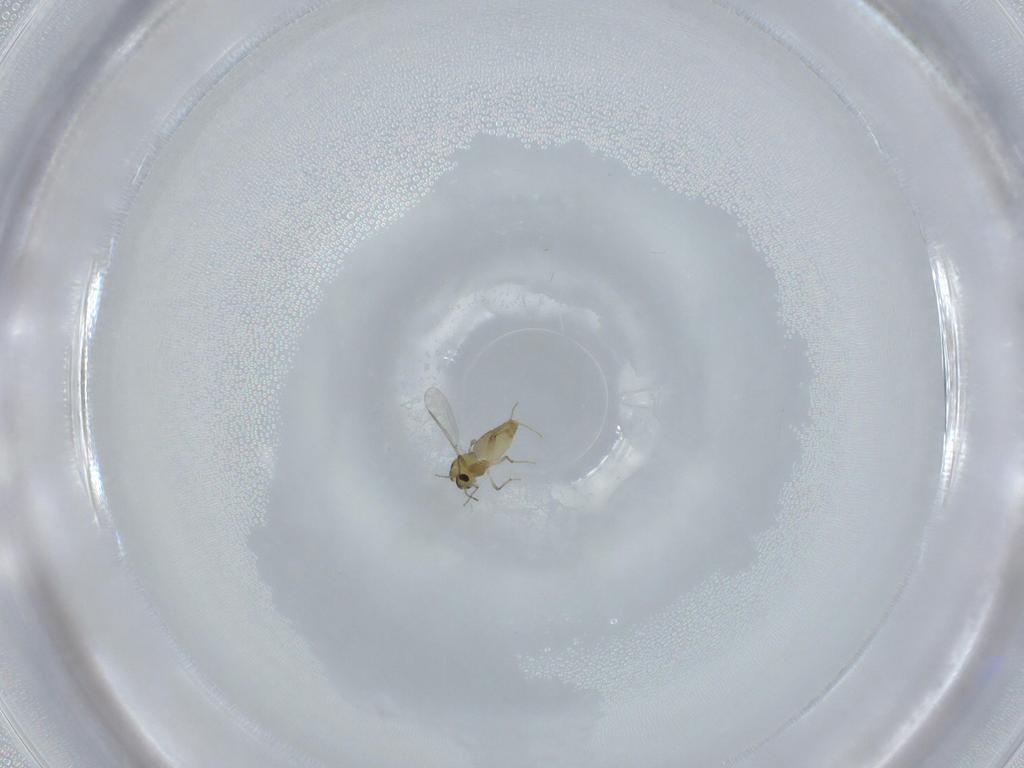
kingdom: Animalia
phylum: Arthropoda
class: Insecta
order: Diptera
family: Chironomidae
